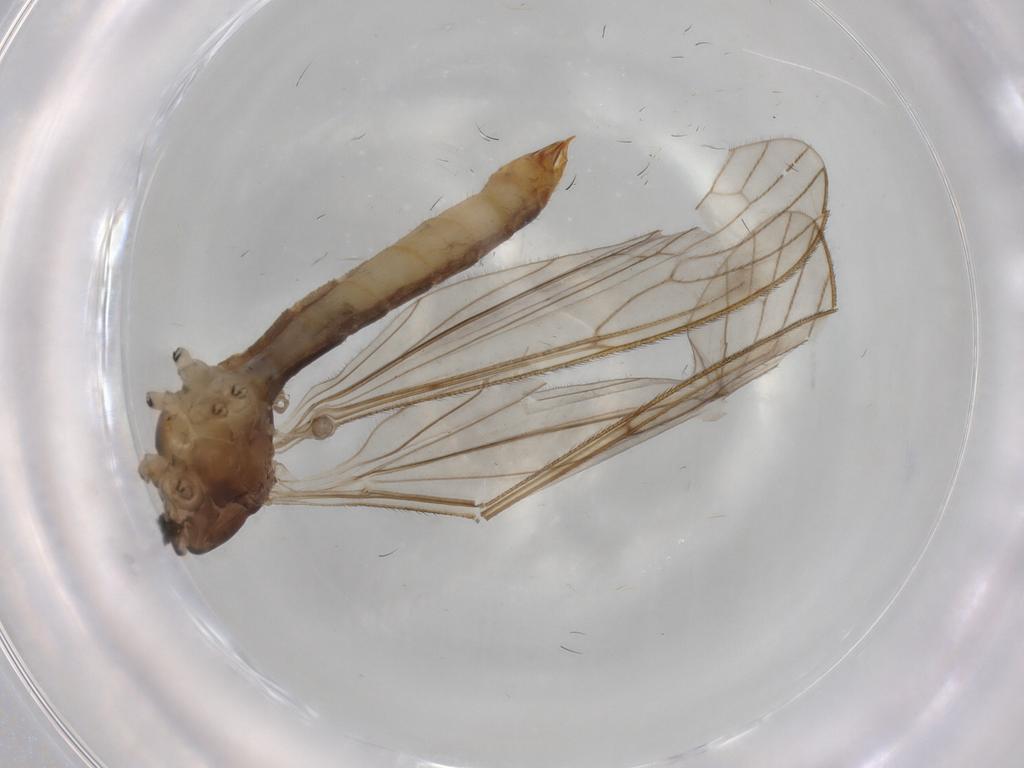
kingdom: Animalia
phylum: Arthropoda
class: Insecta
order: Diptera
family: Limoniidae
